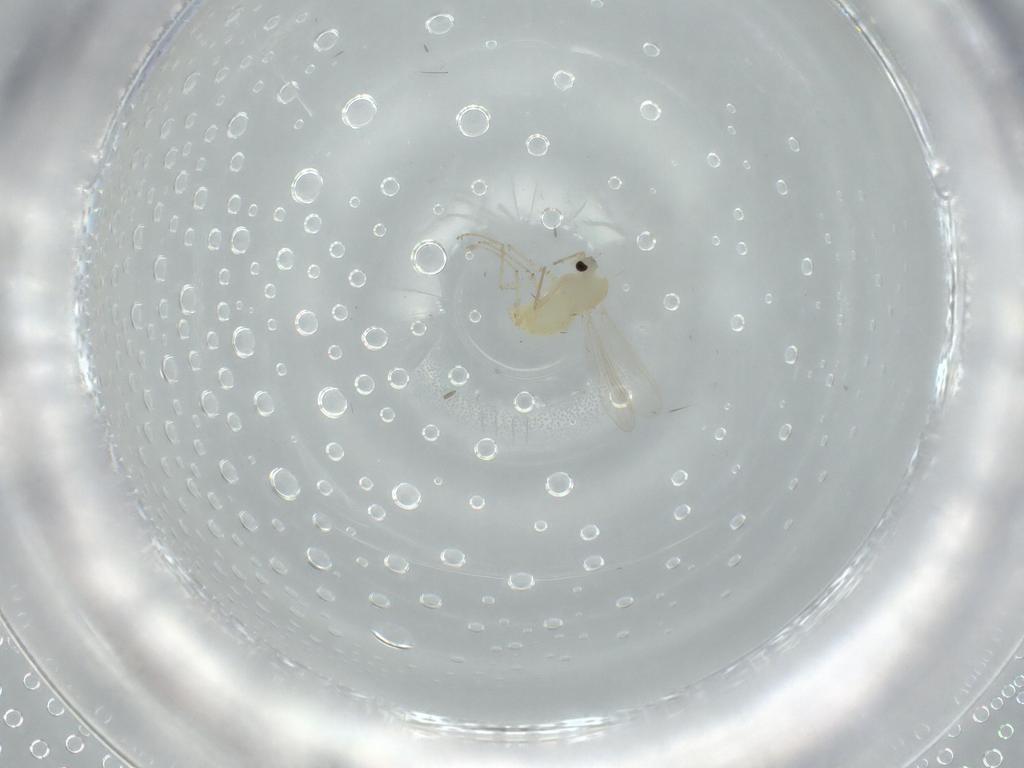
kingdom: Animalia
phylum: Arthropoda
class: Insecta
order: Diptera
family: Chironomidae
